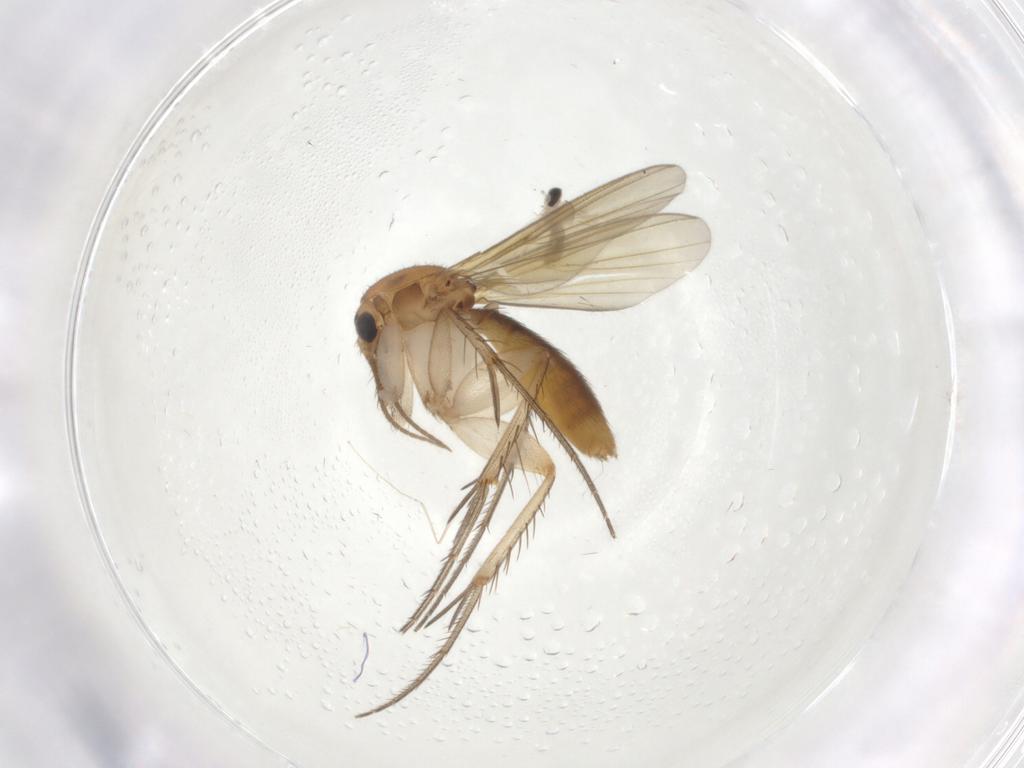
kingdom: Animalia
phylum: Arthropoda
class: Insecta
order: Diptera
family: Mycetophilidae
